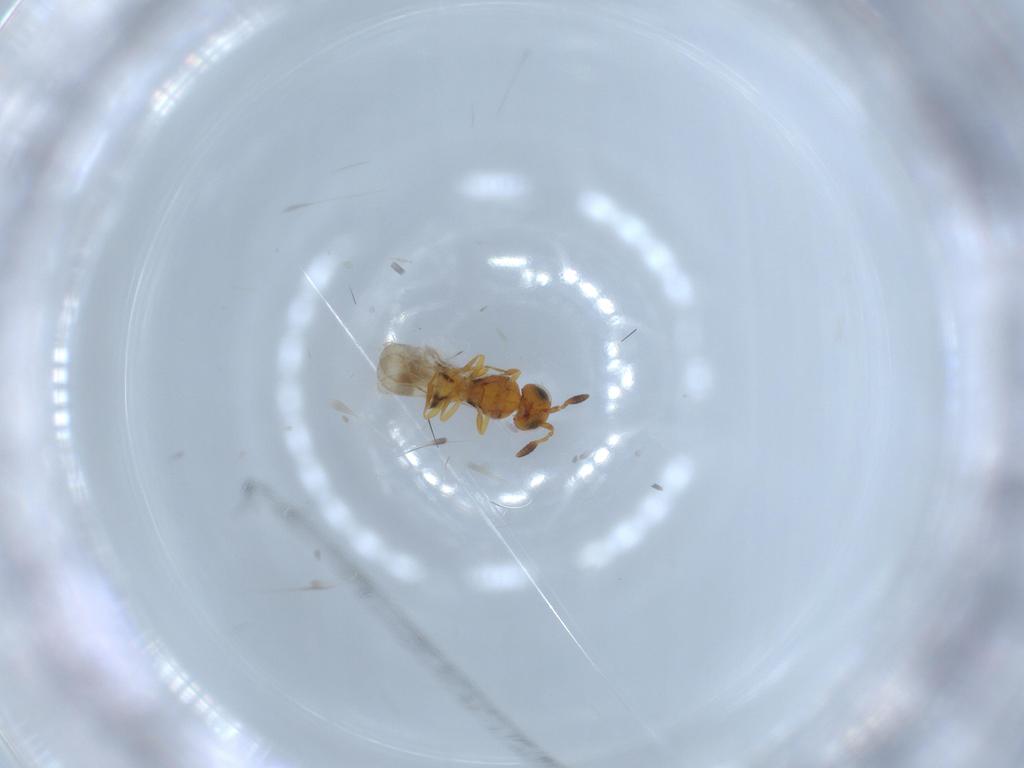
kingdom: Animalia
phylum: Arthropoda
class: Insecta
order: Hymenoptera
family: Scelionidae
